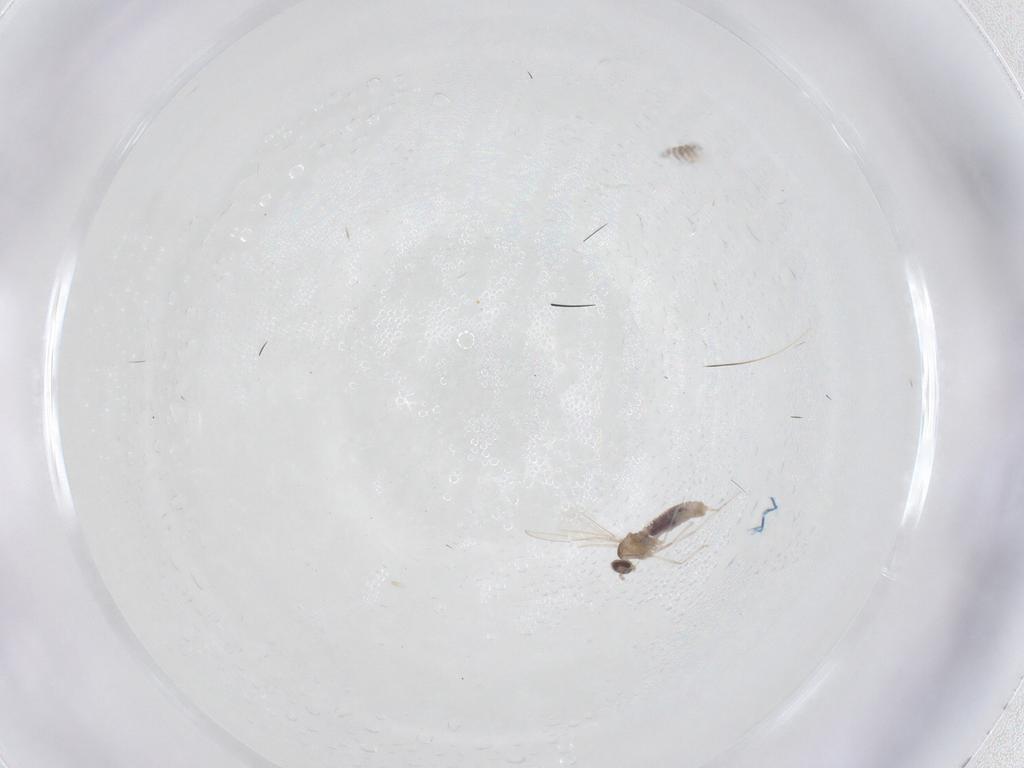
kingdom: Animalia
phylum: Arthropoda
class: Insecta
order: Diptera
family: Cecidomyiidae
